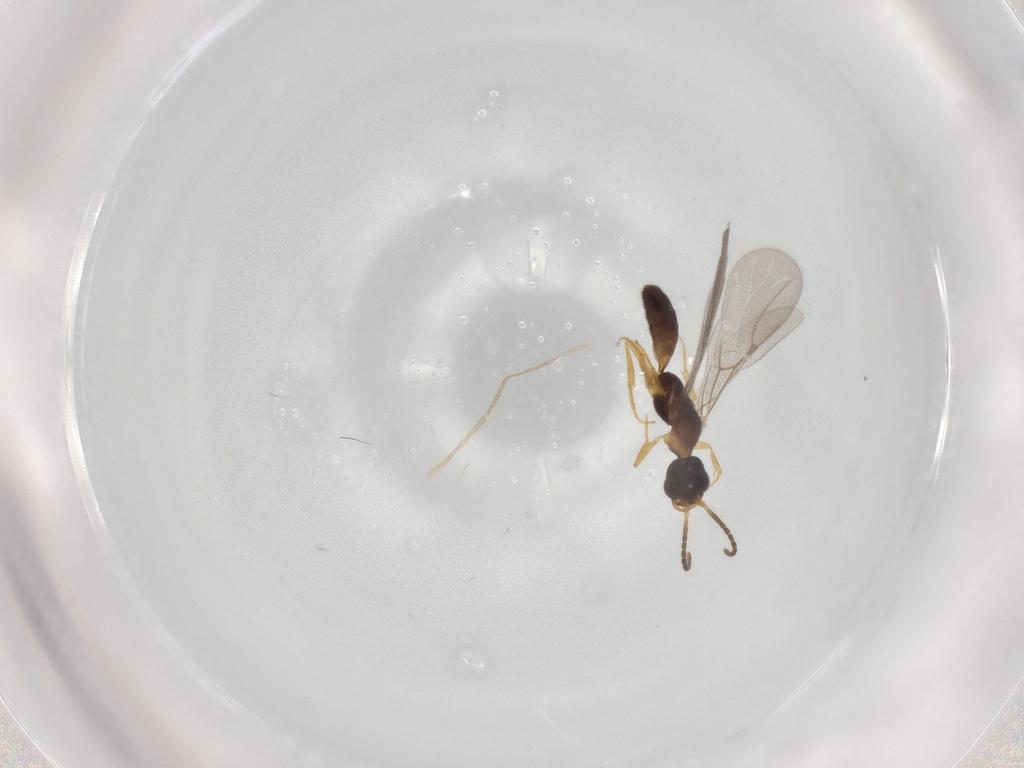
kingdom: Animalia
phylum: Arthropoda
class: Insecta
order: Hymenoptera
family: Bethylidae
